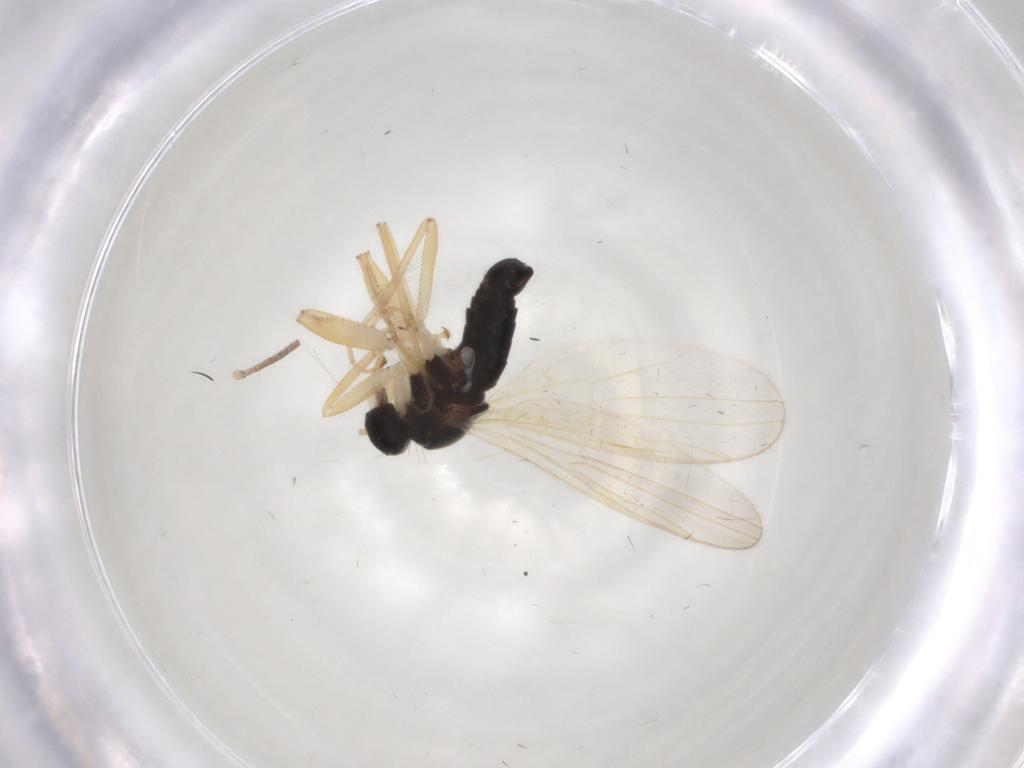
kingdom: Animalia
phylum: Arthropoda
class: Insecta
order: Diptera
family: Hybotidae
